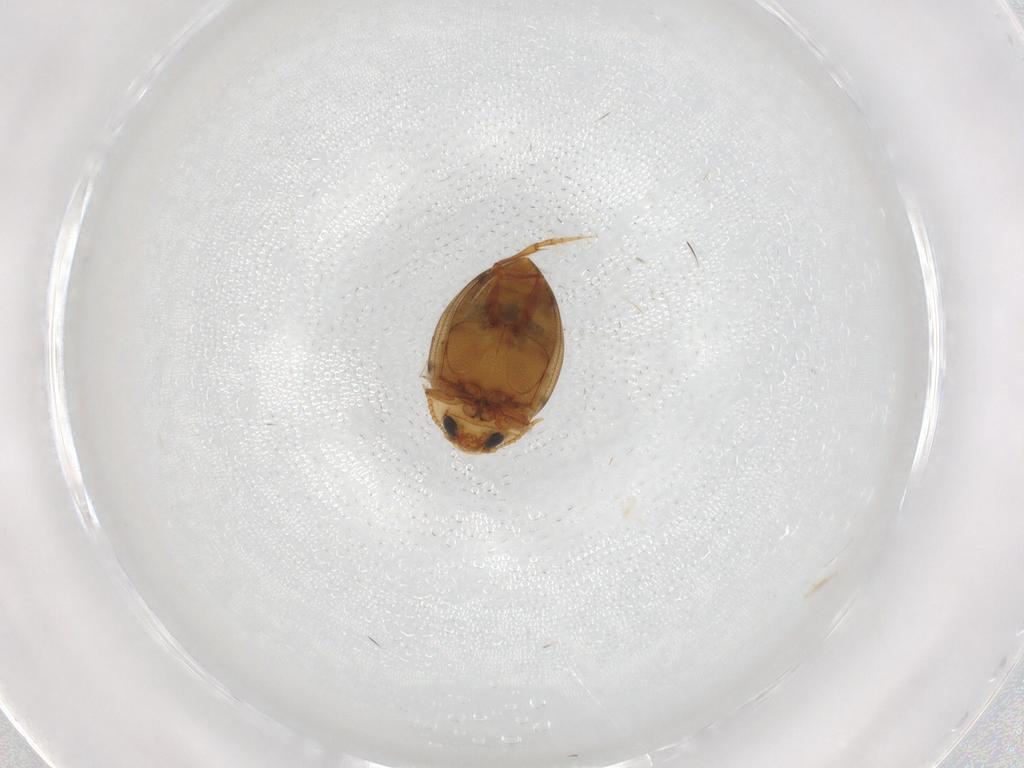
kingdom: Animalia
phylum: Arthropoda
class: Insecta
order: Coleoptera
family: Dytiscidae
